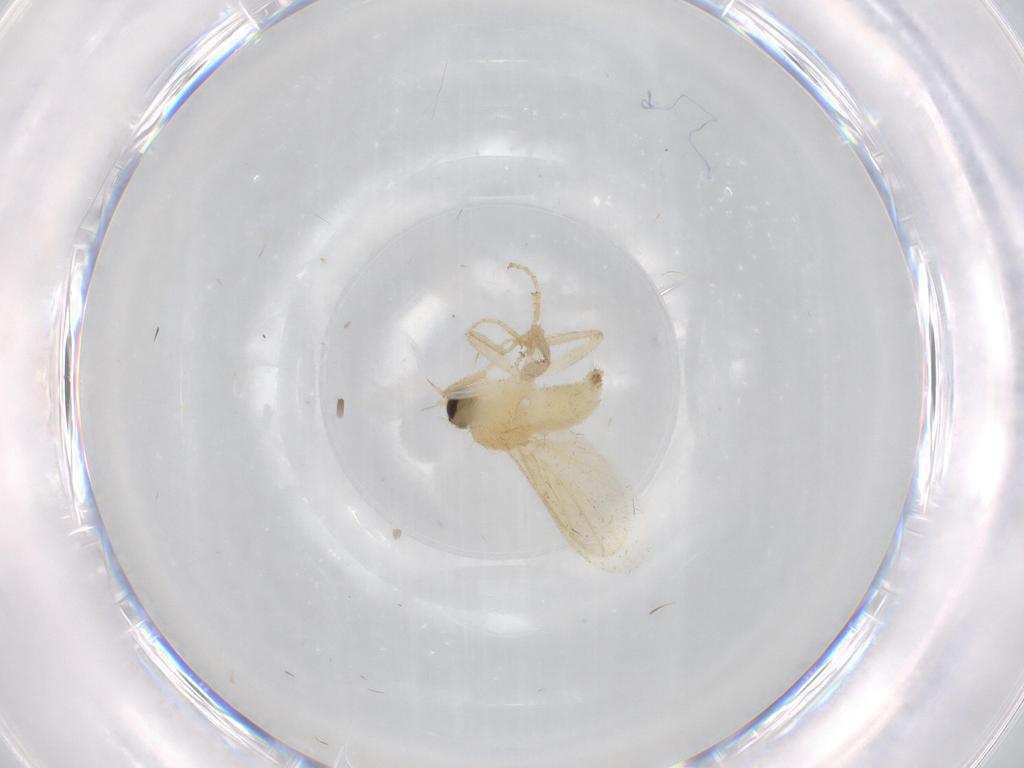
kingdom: Animalia
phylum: Arthropoda
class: Insecta
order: Diptera
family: Hybotidae
